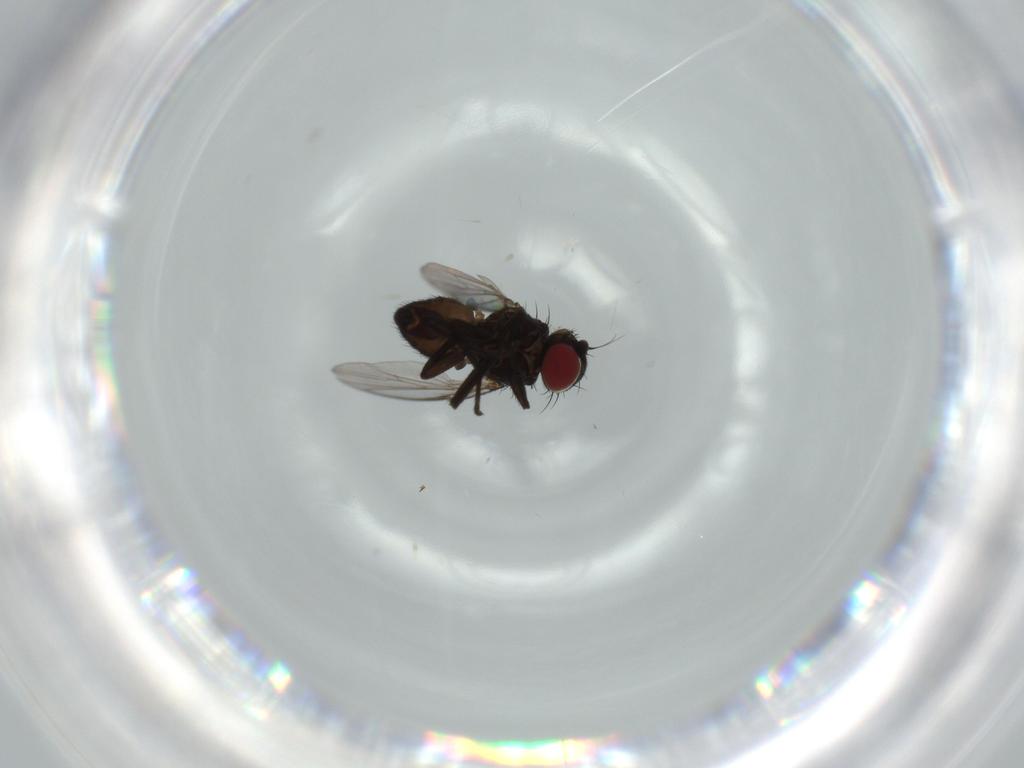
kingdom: Animalia
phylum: Arthropoda
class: Insecta
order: Diptera
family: Agromyzidae
